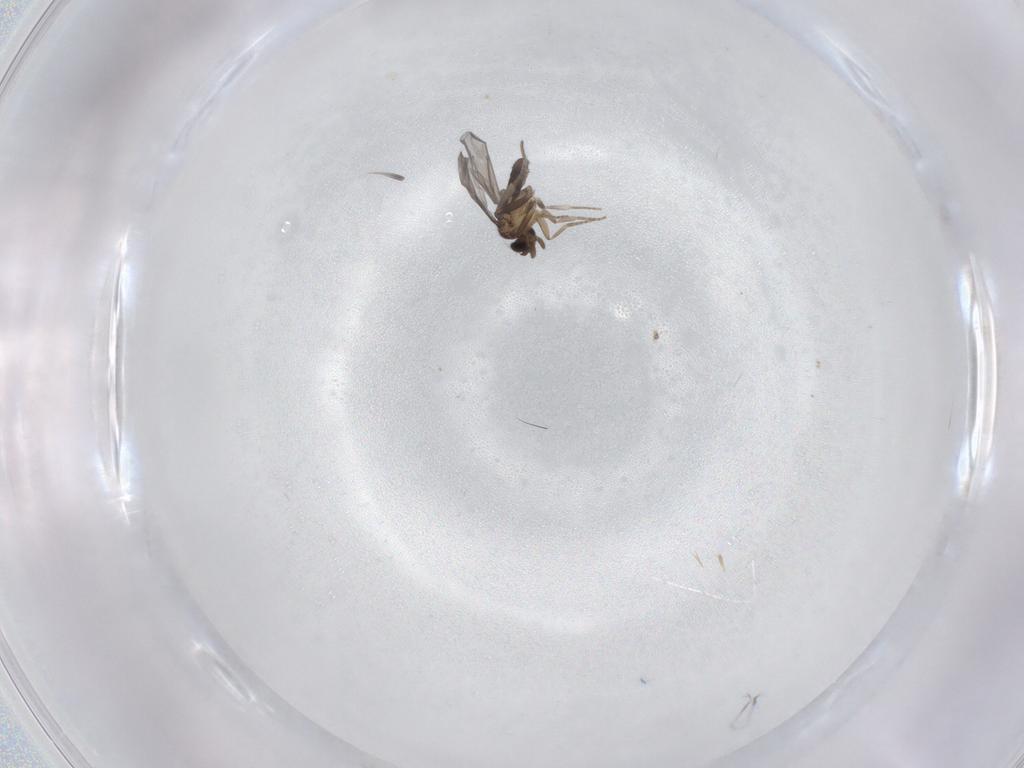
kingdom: Animalia
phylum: Arthropoda
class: Insecta
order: Diptera
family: Phoridae
